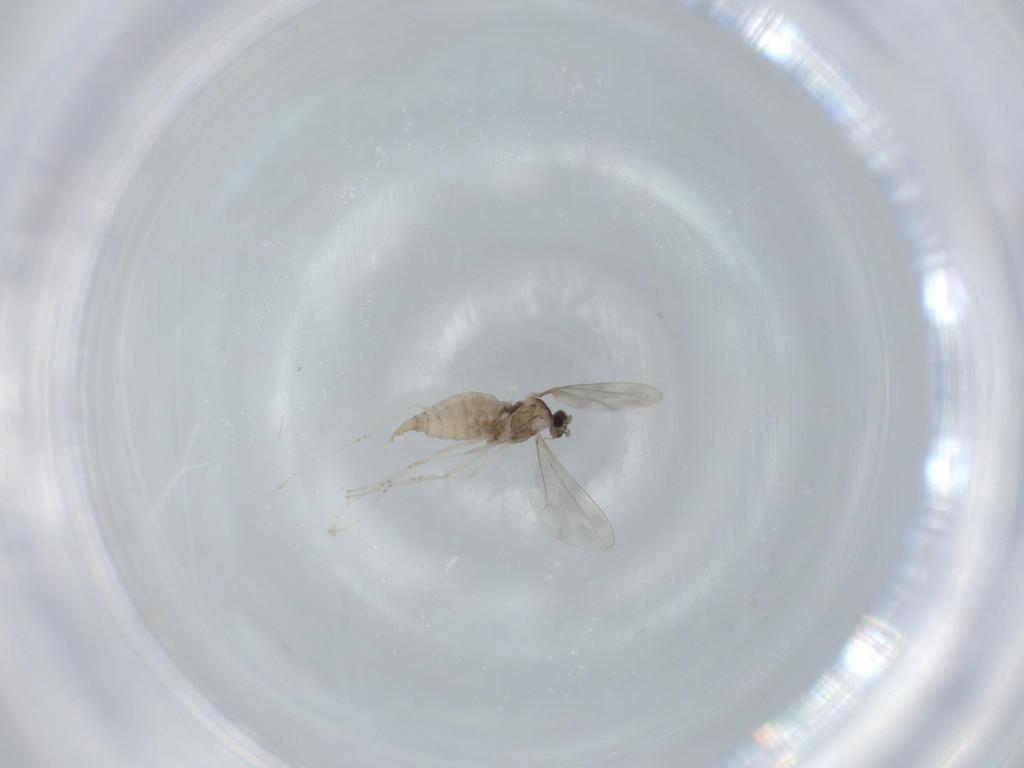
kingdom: Animalia
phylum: Arthropoda
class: Insecta
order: Diptera
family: Cecidomyiidae
